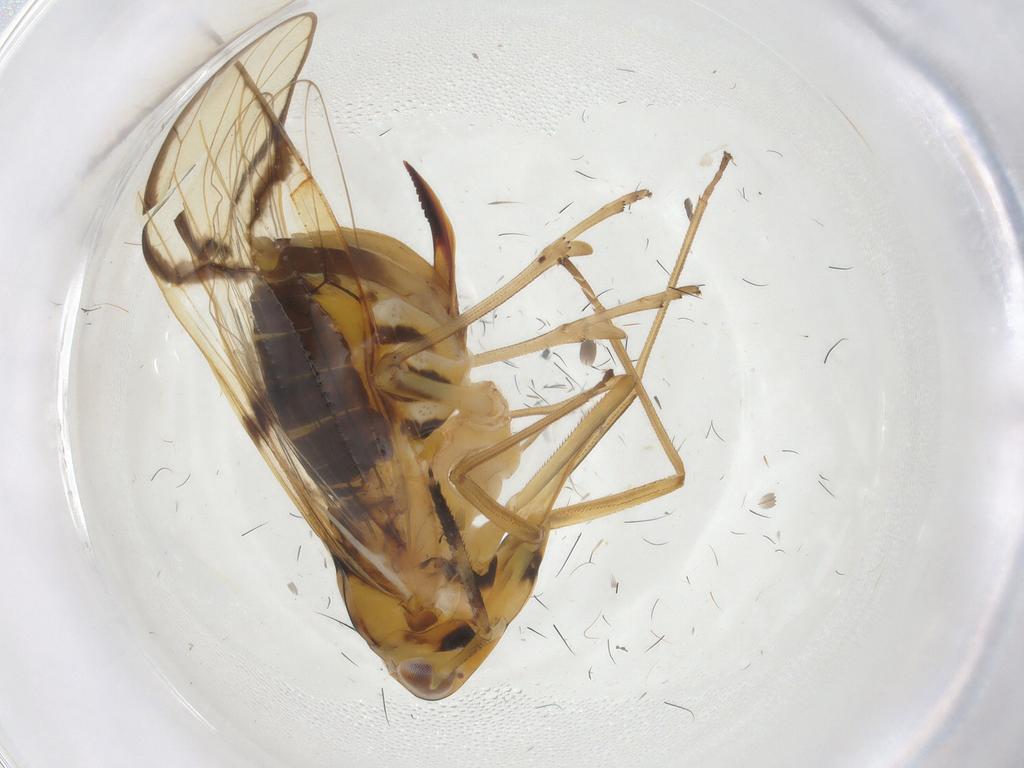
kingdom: Animalia
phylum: Arthropoda
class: Insecta
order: Hemiptera
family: Delphacidae
